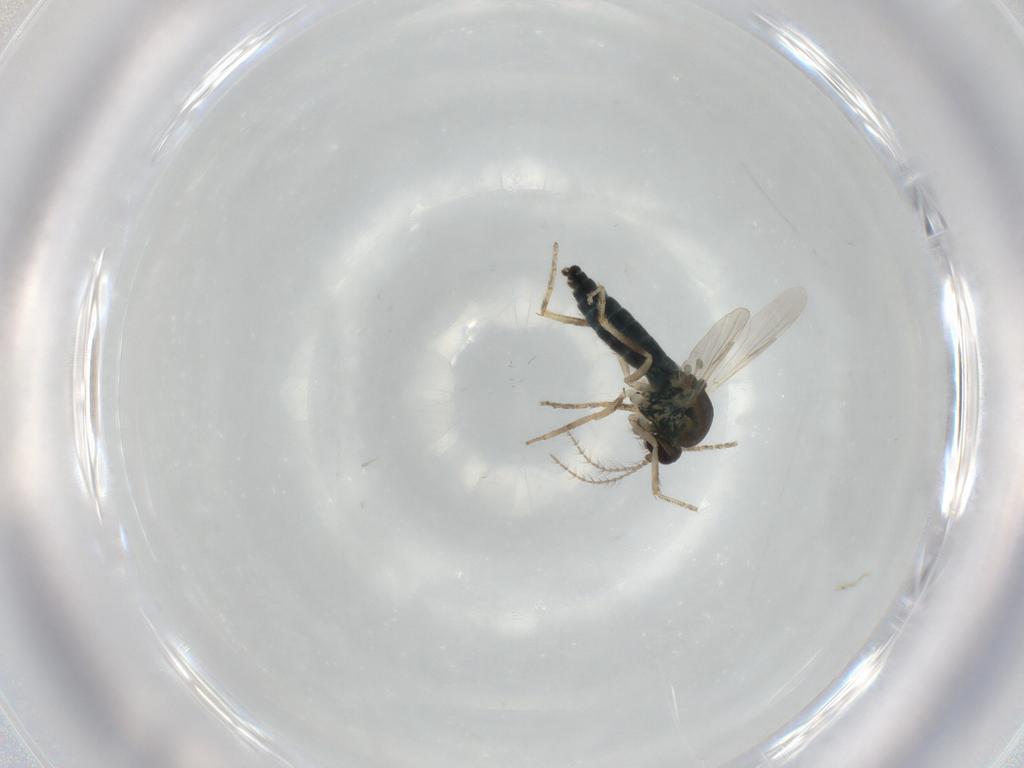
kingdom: Animalia
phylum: Arthropoda
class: Insecta
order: Diptera
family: Ceratopogonidae
